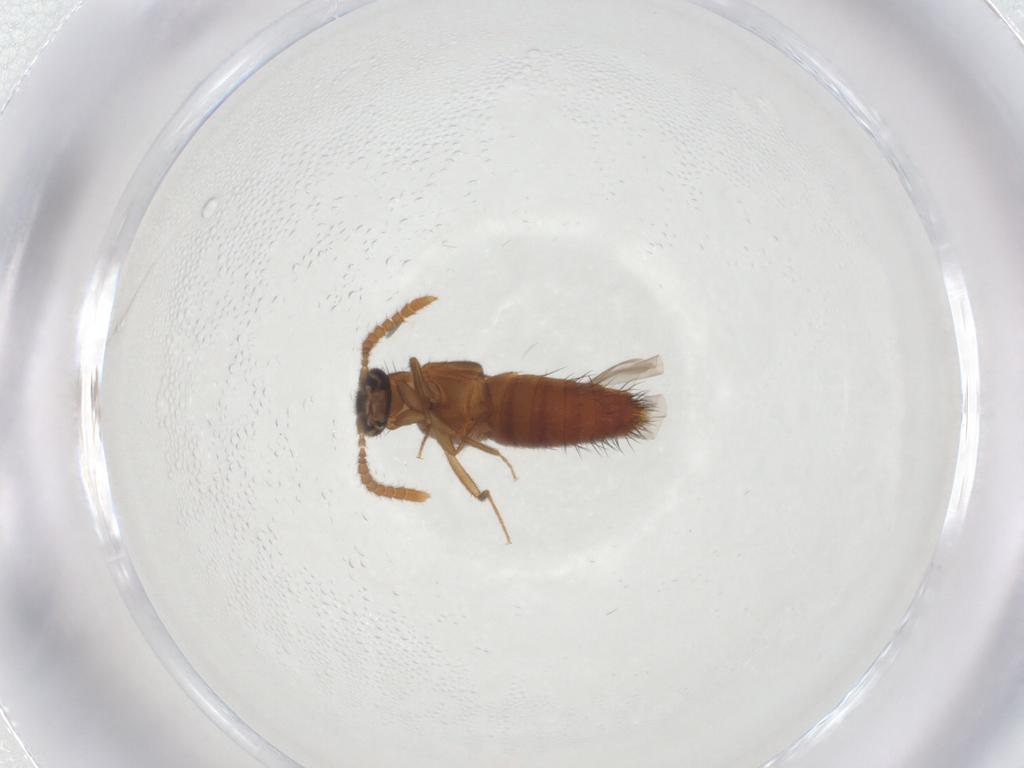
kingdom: Animalia
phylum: Arthropoda
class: Insecta
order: Coleoptera
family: Staphylinidae
